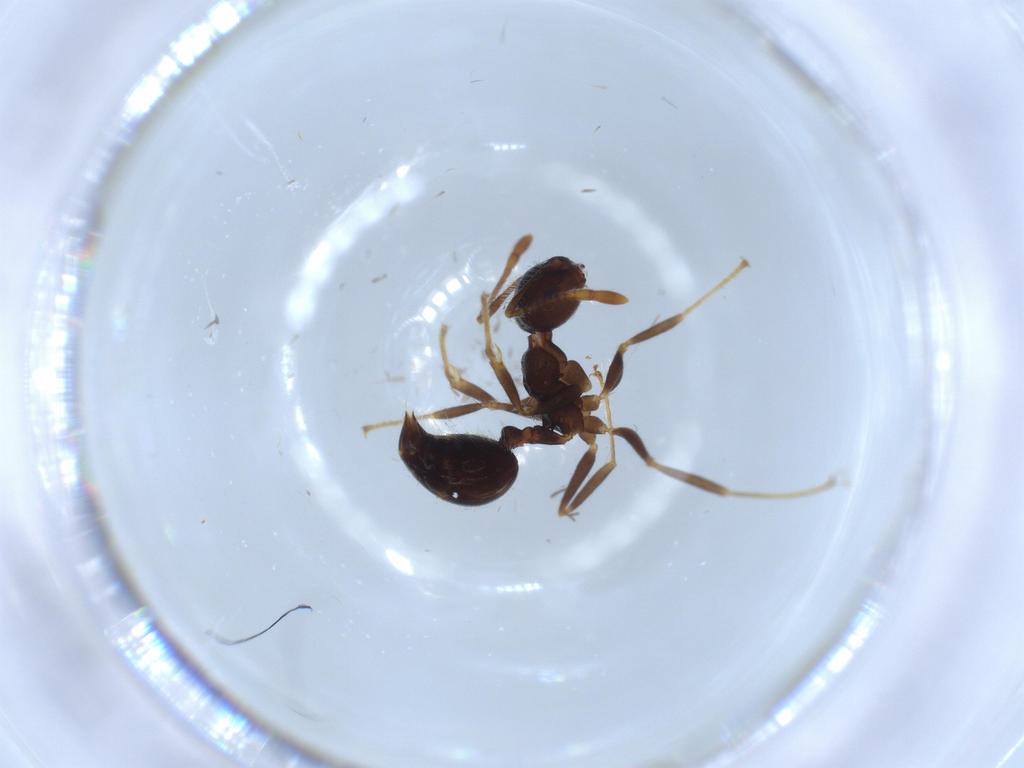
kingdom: Animalia
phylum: Arthropoda
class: Insecta
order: Hymenoptera
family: Formicidae
